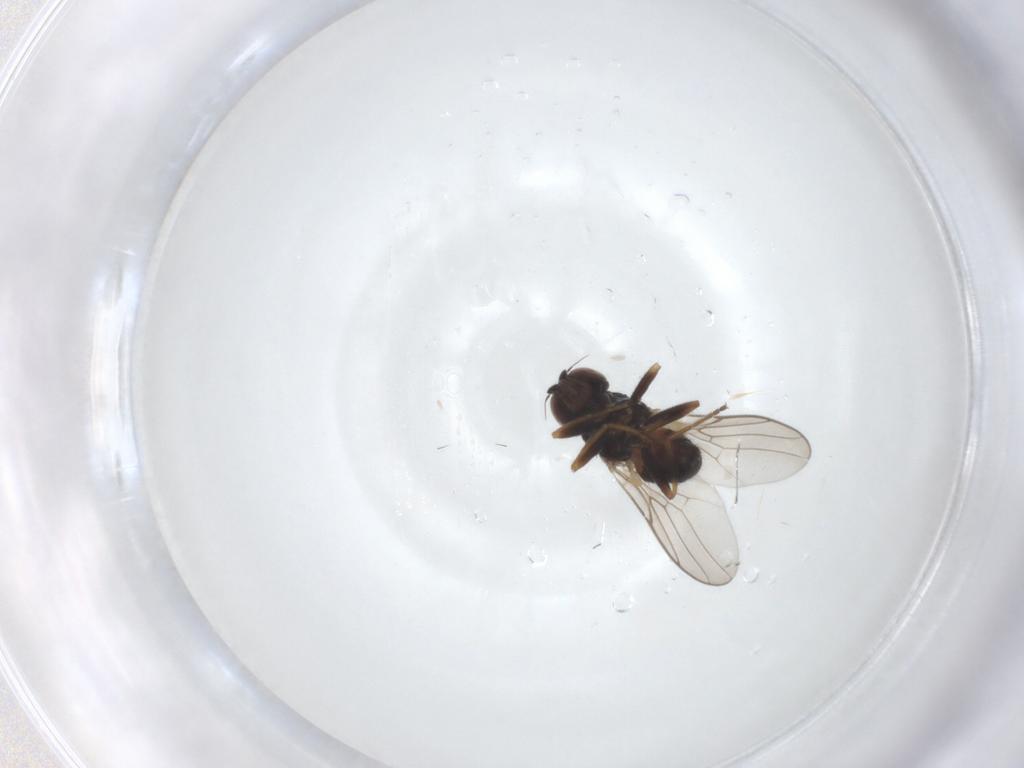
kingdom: Animalia
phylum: Arthropoda
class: Insecta
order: Diptera
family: Chloropidae
